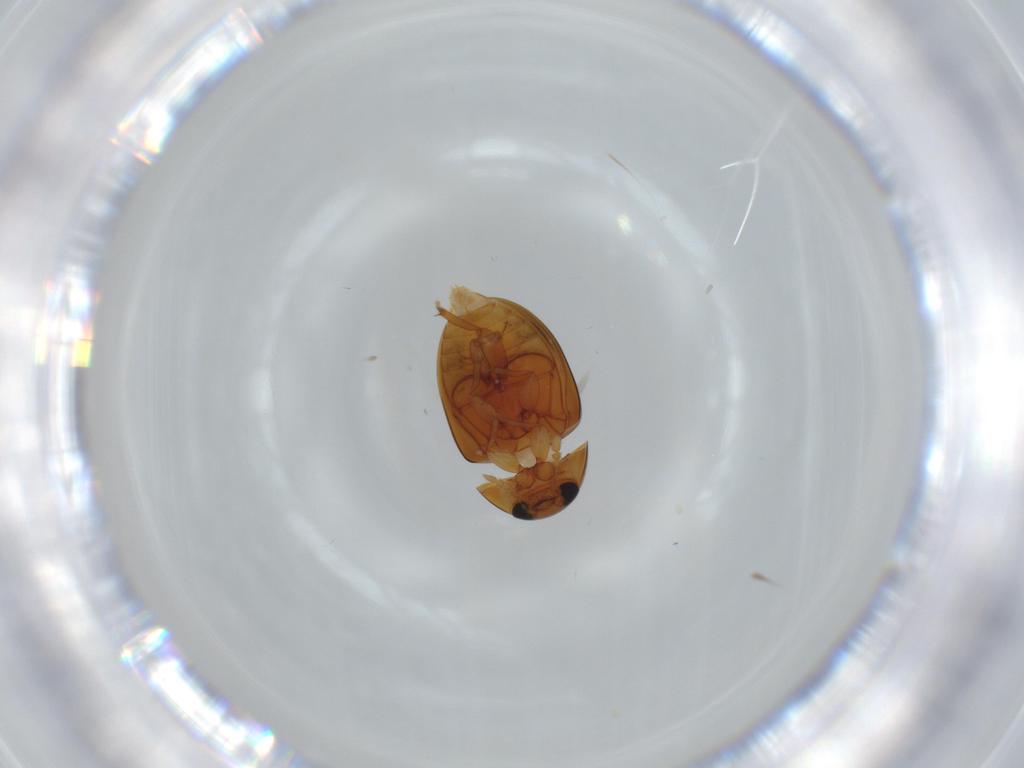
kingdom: Animalia
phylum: Arthropoda
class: Insecta
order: Coleoptera
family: Phalacridae
